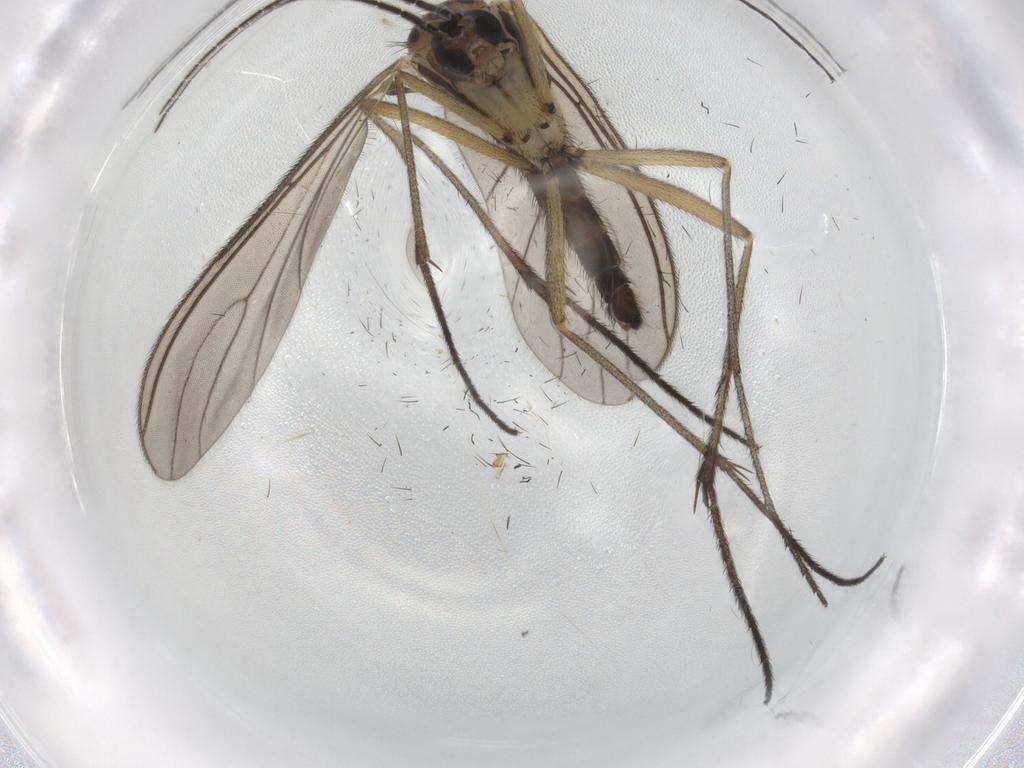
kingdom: Animalia
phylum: Arthropoda
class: Insecta
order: Diptera
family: Sciaridae
